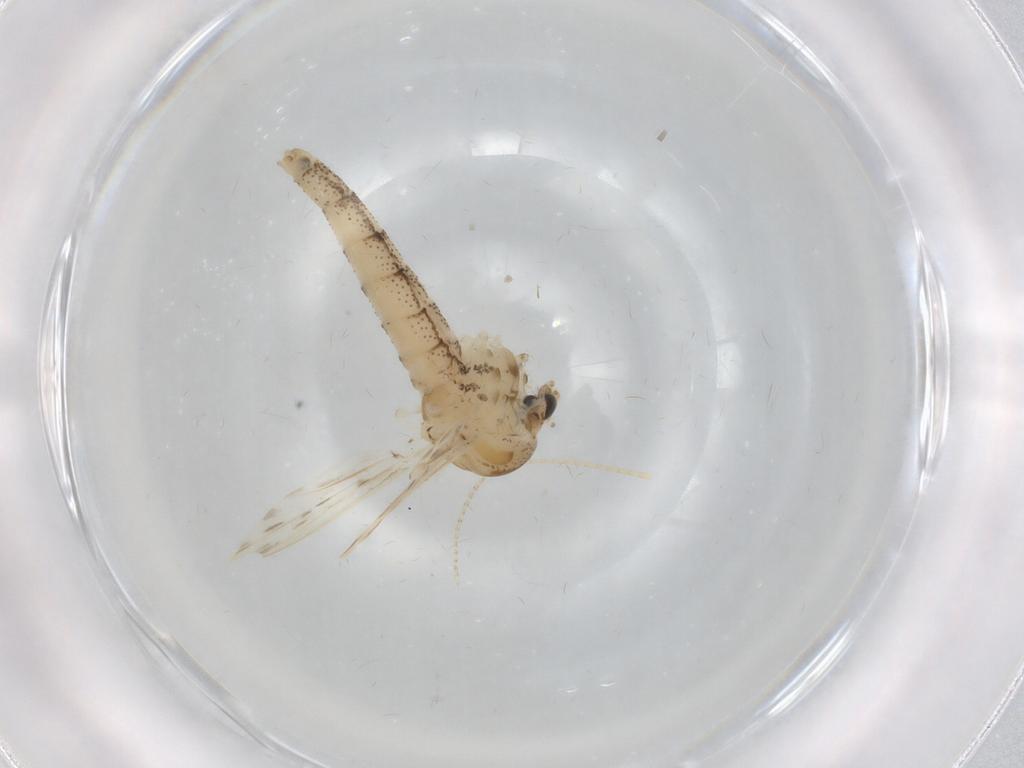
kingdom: Animalia
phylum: Arthropoda
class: Insecta
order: Diptera
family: Chaoboridae
